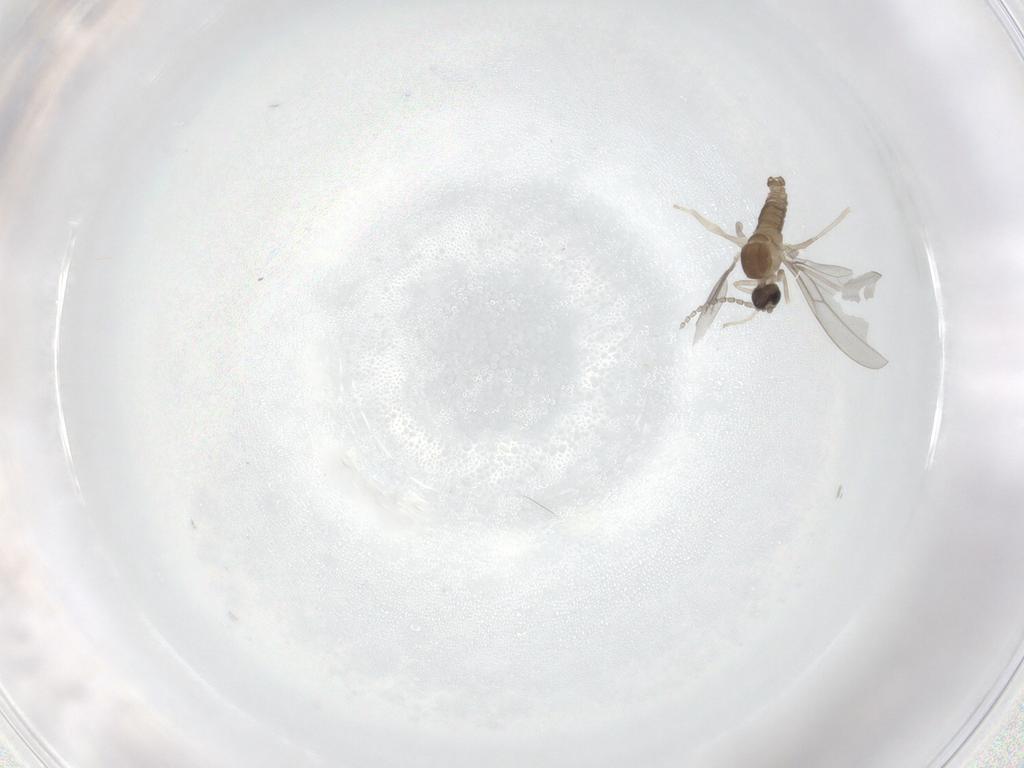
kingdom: Animalia
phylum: Arthropoda
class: Insecta
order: Diptera
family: Cecidomyiidae
